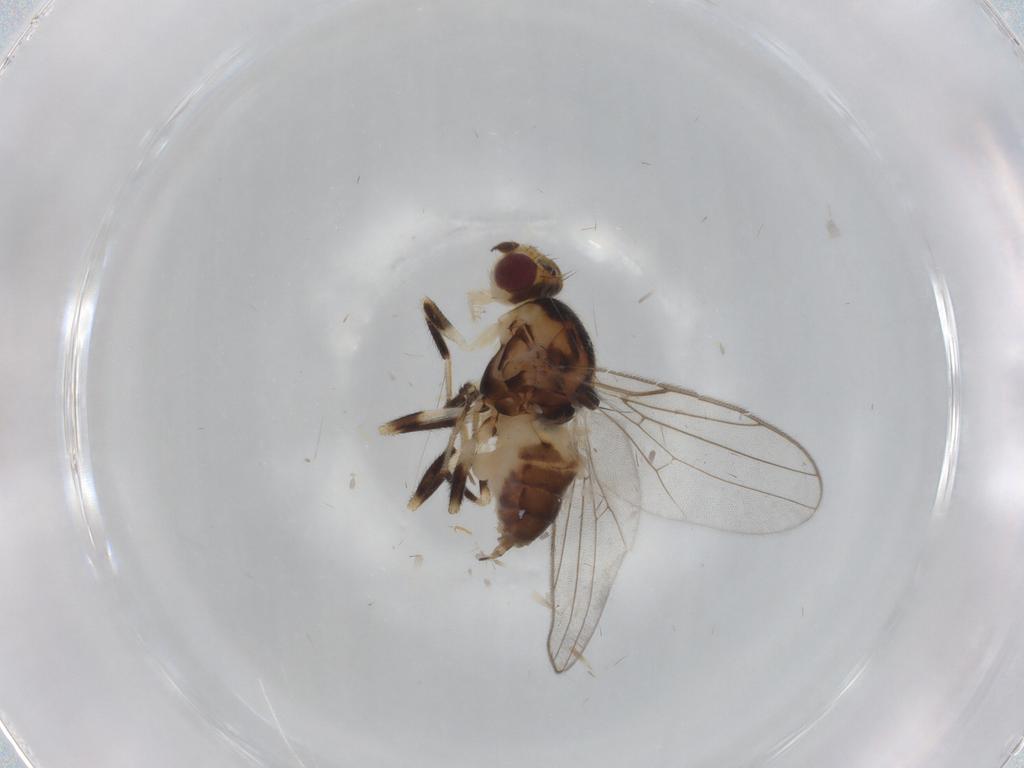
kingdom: Animalia
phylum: Arthropoda
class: Insecta
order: Diptera
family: Chloropidae
